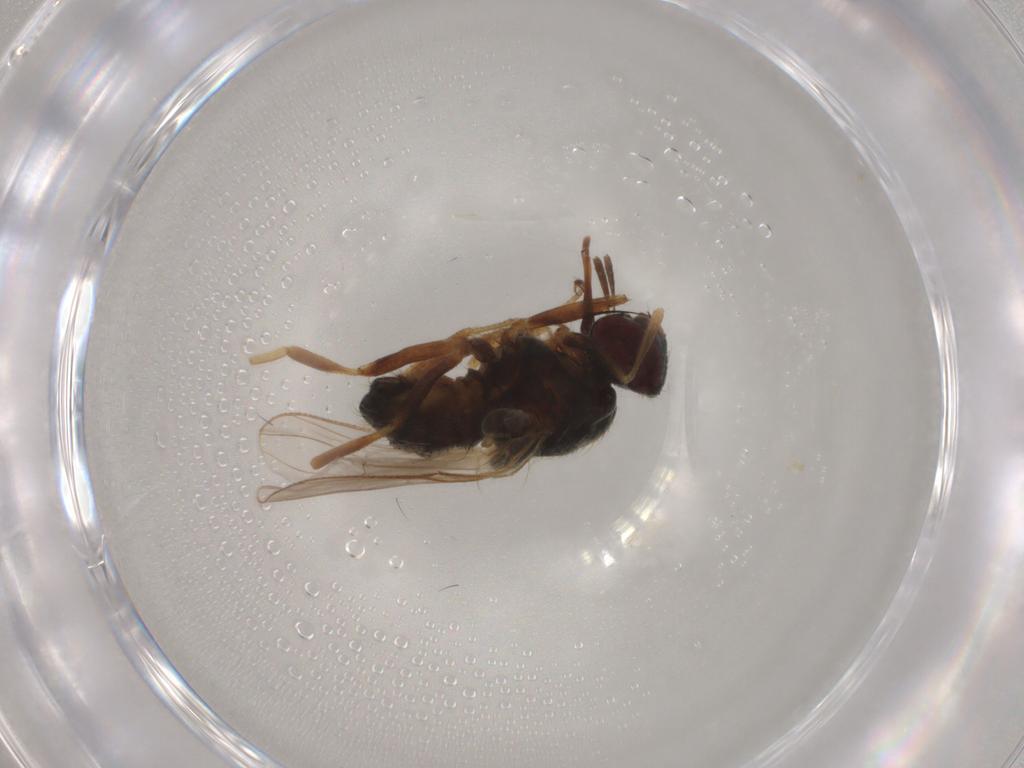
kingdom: Animalia
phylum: Arthropoda
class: Insecta
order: Diptera
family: Muscidae
